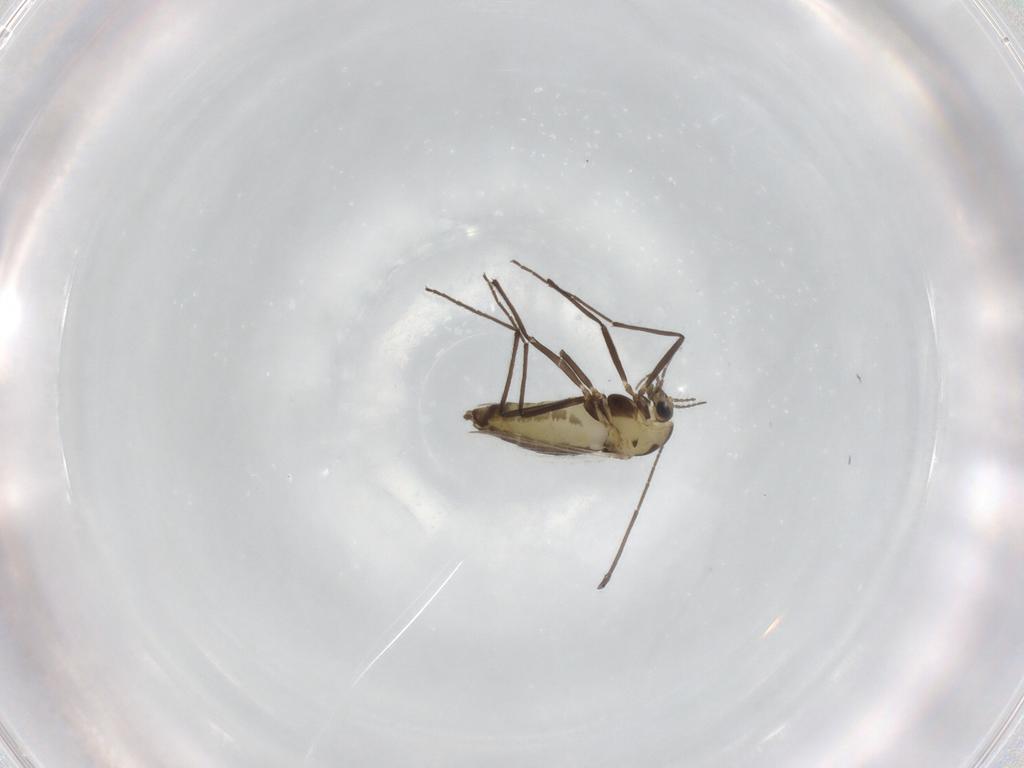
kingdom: Animalia
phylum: Arthropoda
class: Insecta
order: Diptera
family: Chironomidae
